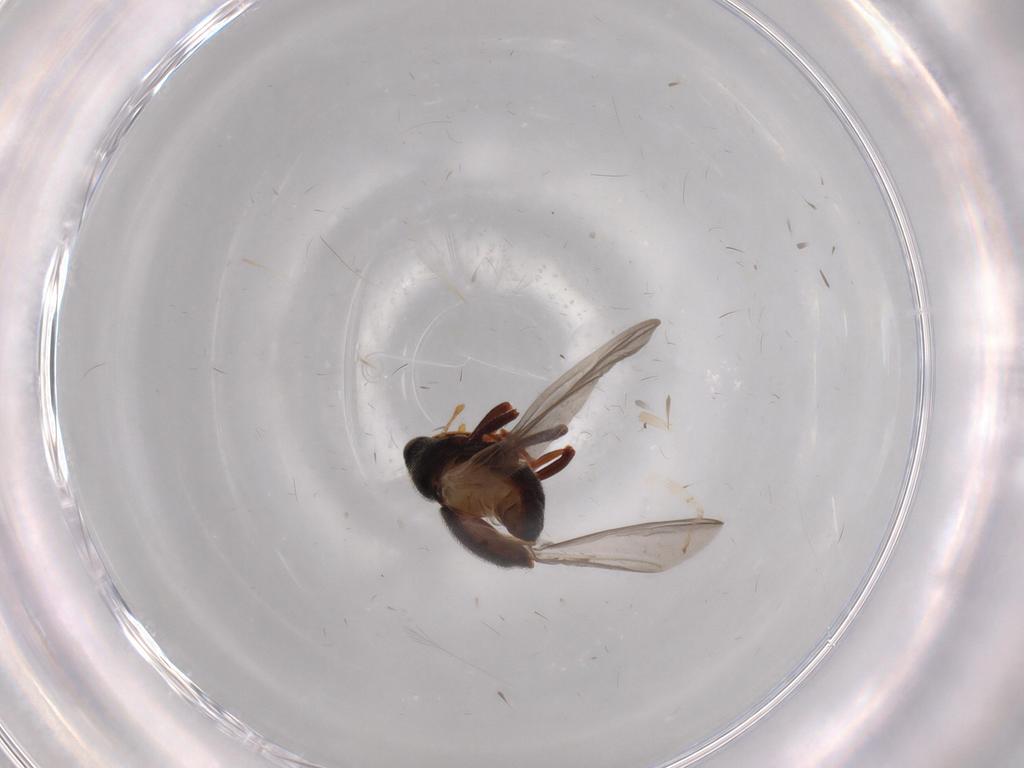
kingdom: Animalia
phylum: Arthropoda
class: Insecta
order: Coleoptera
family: Curculionidae
